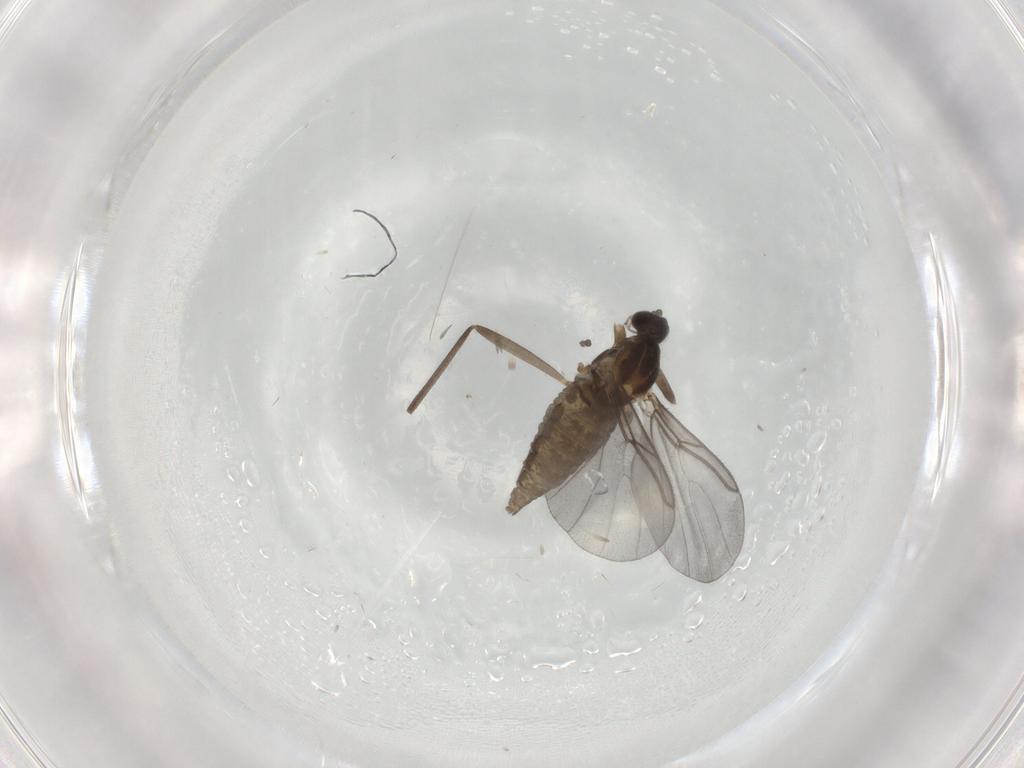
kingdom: Animalia
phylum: Arthropoda
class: Insecta
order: Diptera
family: Cecidomyiidae
